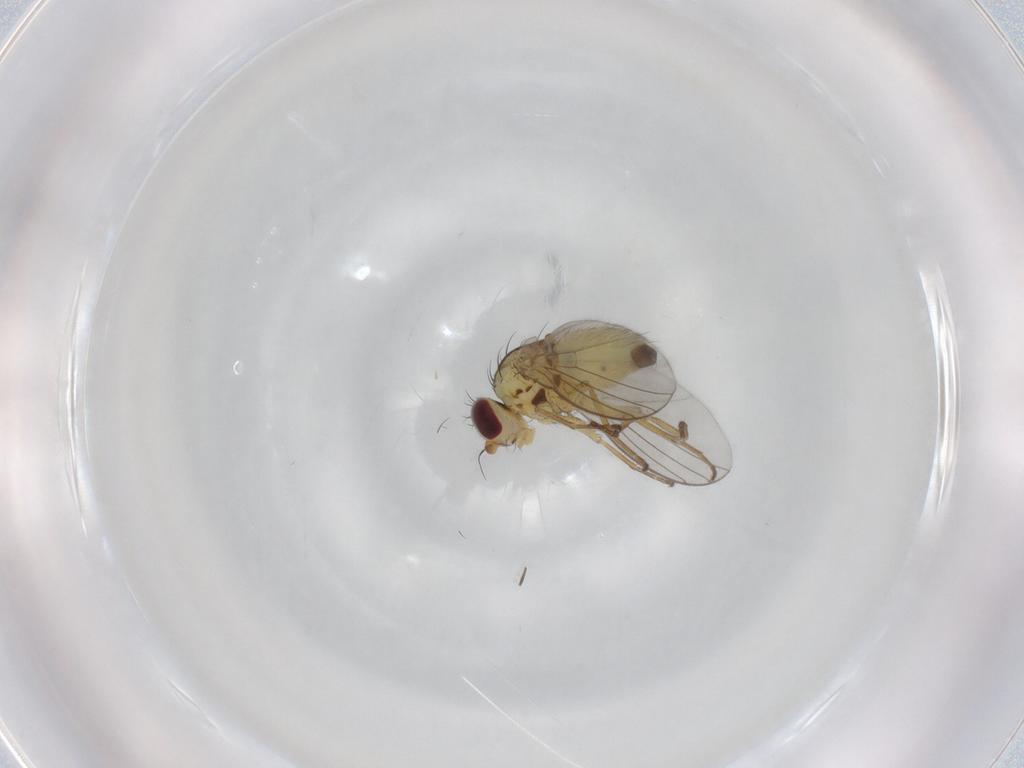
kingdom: Animalia
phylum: Arthropoda
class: Insecta
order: Diptera
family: Agromyzidae
